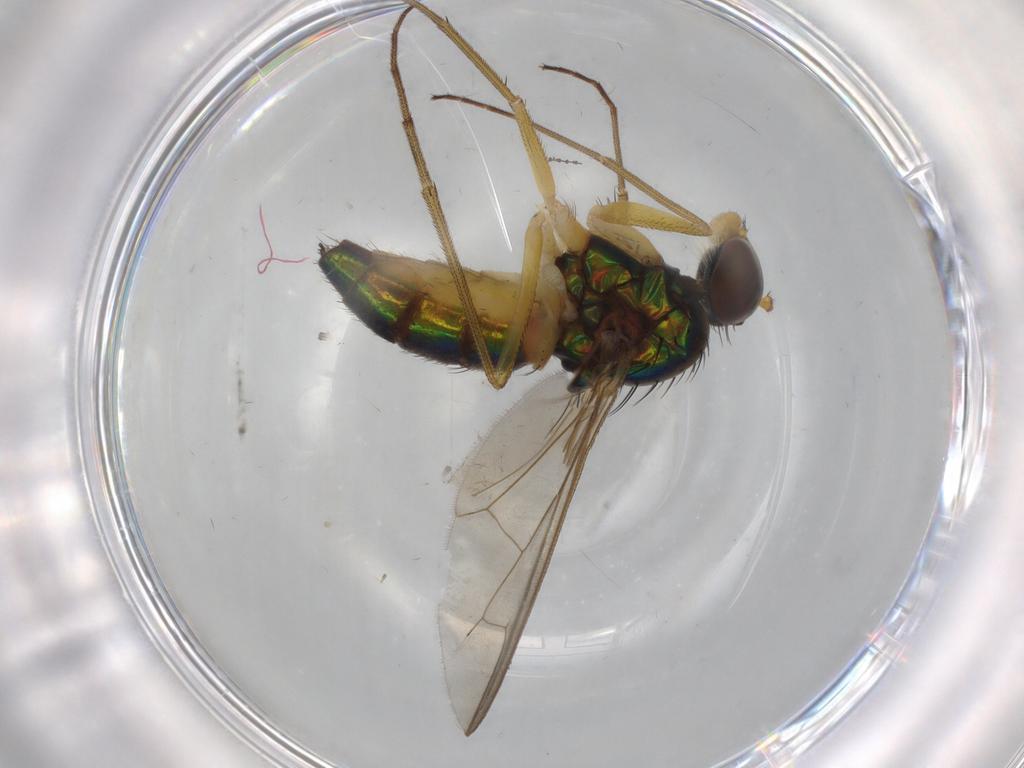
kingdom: Animalia
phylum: Arthropoda
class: Insecta
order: Diptera
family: Dolichopodidae
